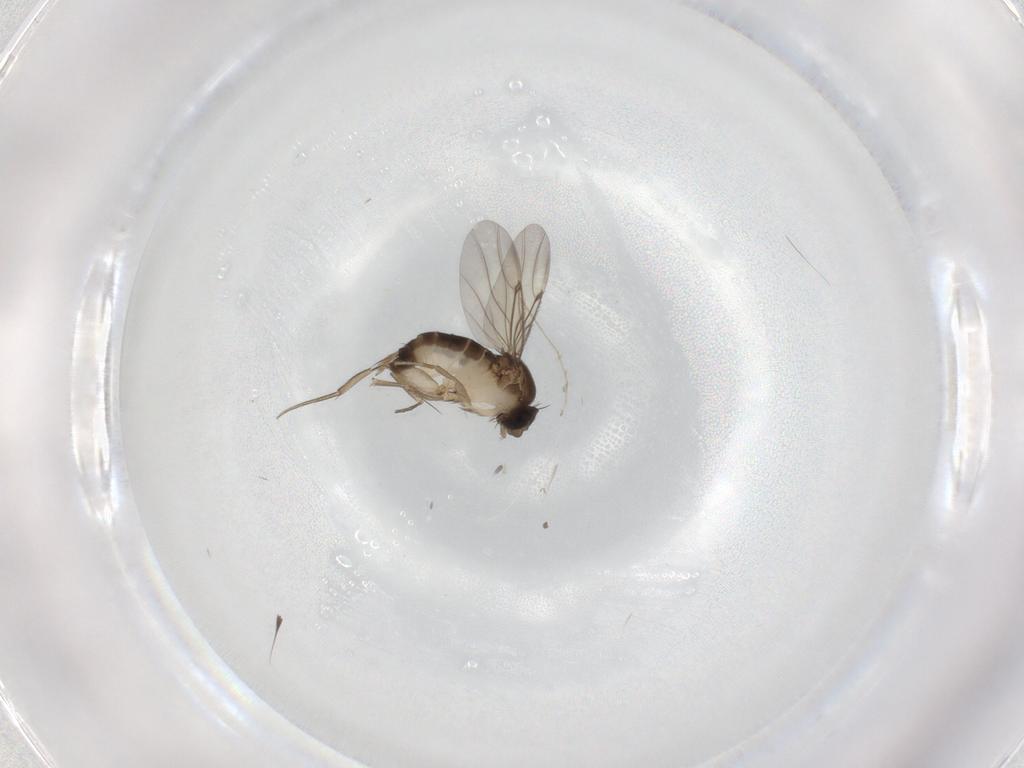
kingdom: Animalia
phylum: Arthropoda
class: Insecta
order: Diptera
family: Phoridae
